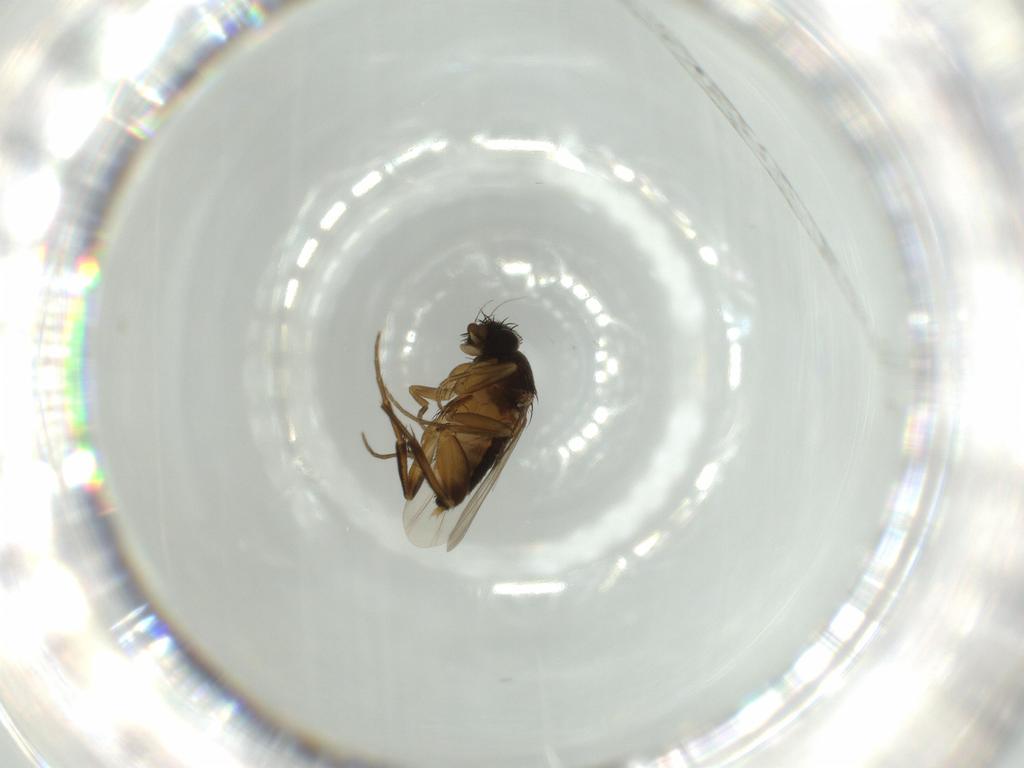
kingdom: Animalia
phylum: Arthropoda
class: Insecta
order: Diptera
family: Phoridae
